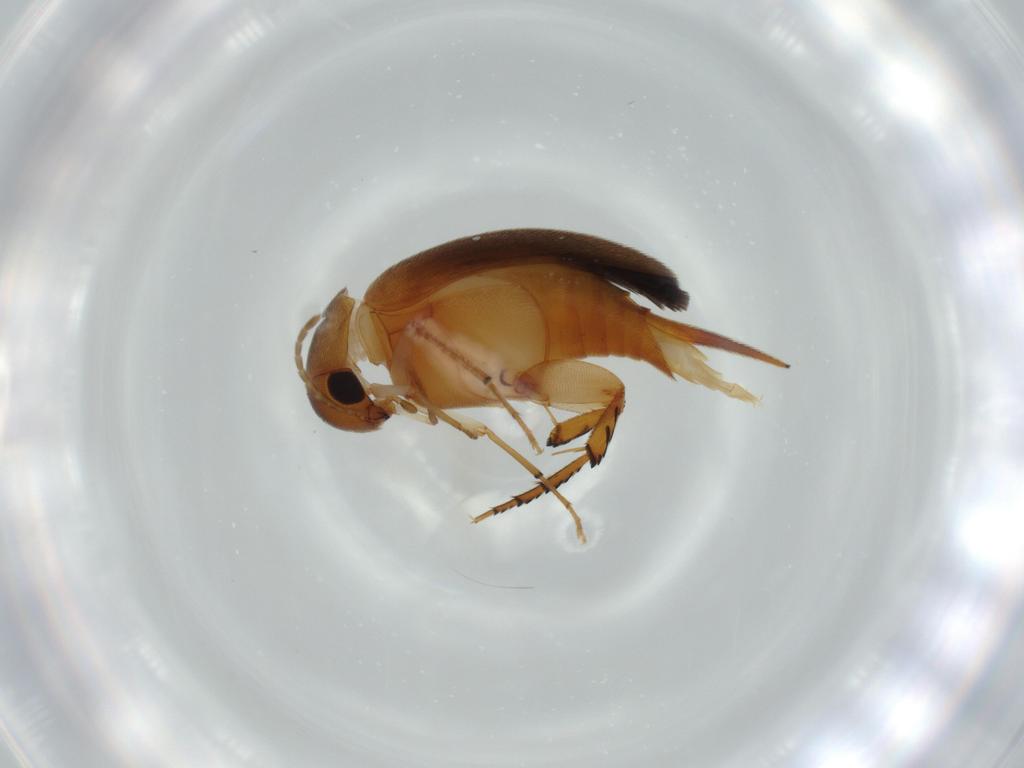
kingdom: Animalia
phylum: Arthropoda
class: Insecta
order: Coleoptera
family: Mordellidae
